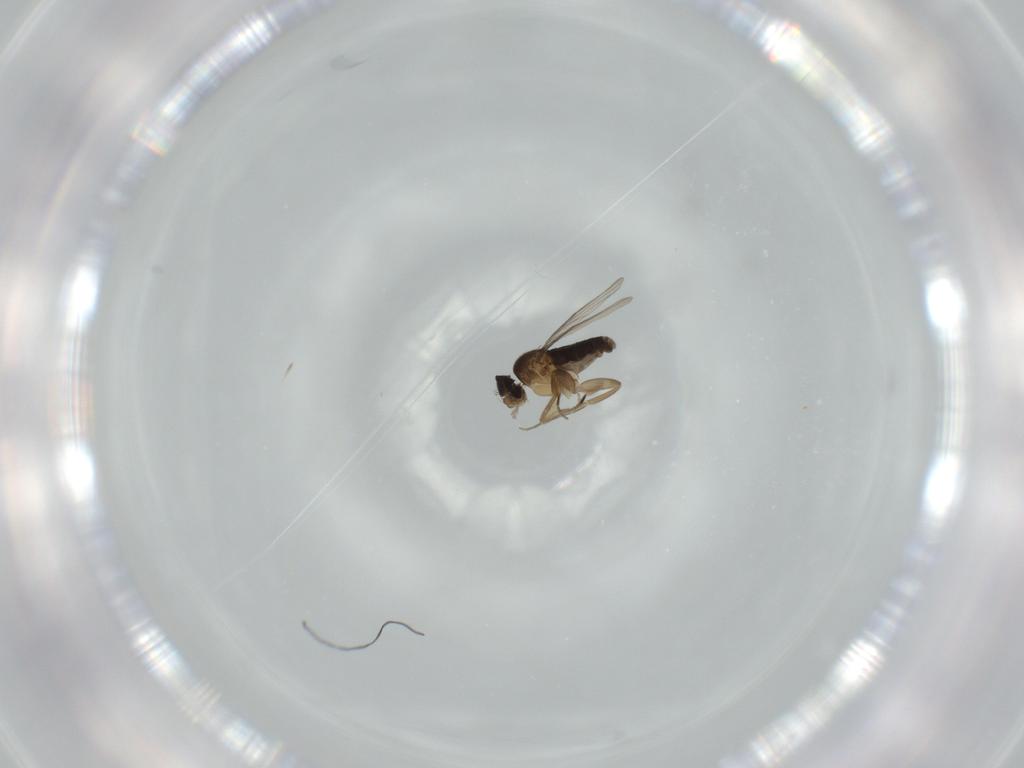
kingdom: Animalia
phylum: Arthropoda
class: Insecta
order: Diptera
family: Phoridae
